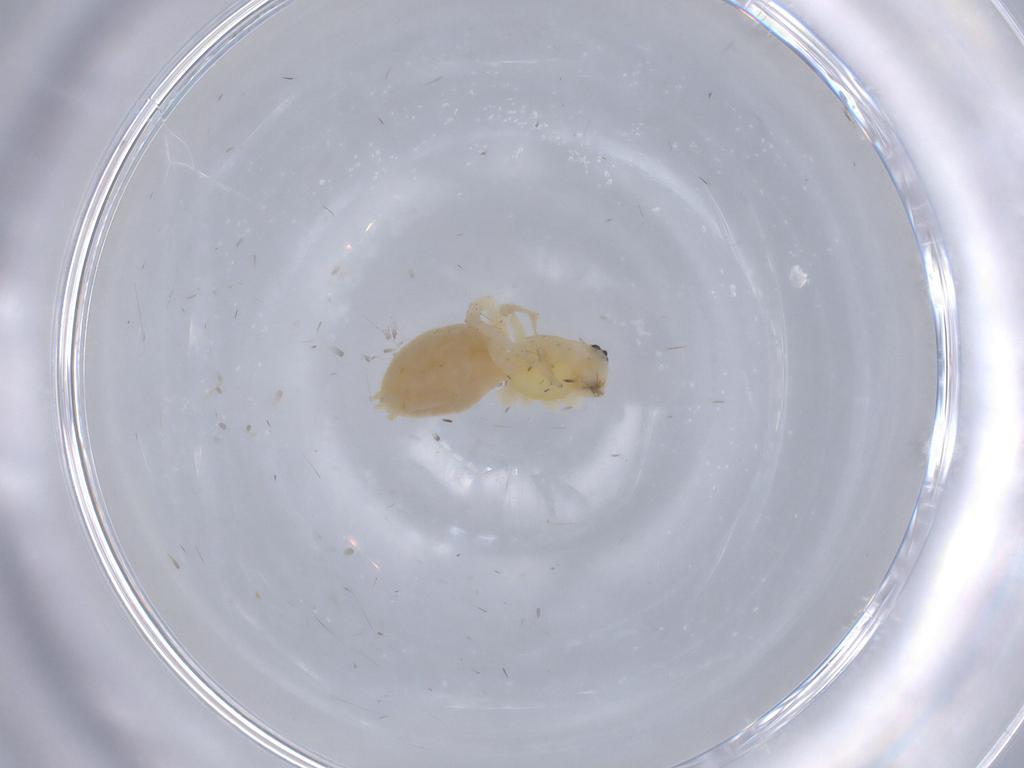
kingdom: Animalia
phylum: Arthropoda
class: Arachnida
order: Araneae
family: Anyphaenidae
